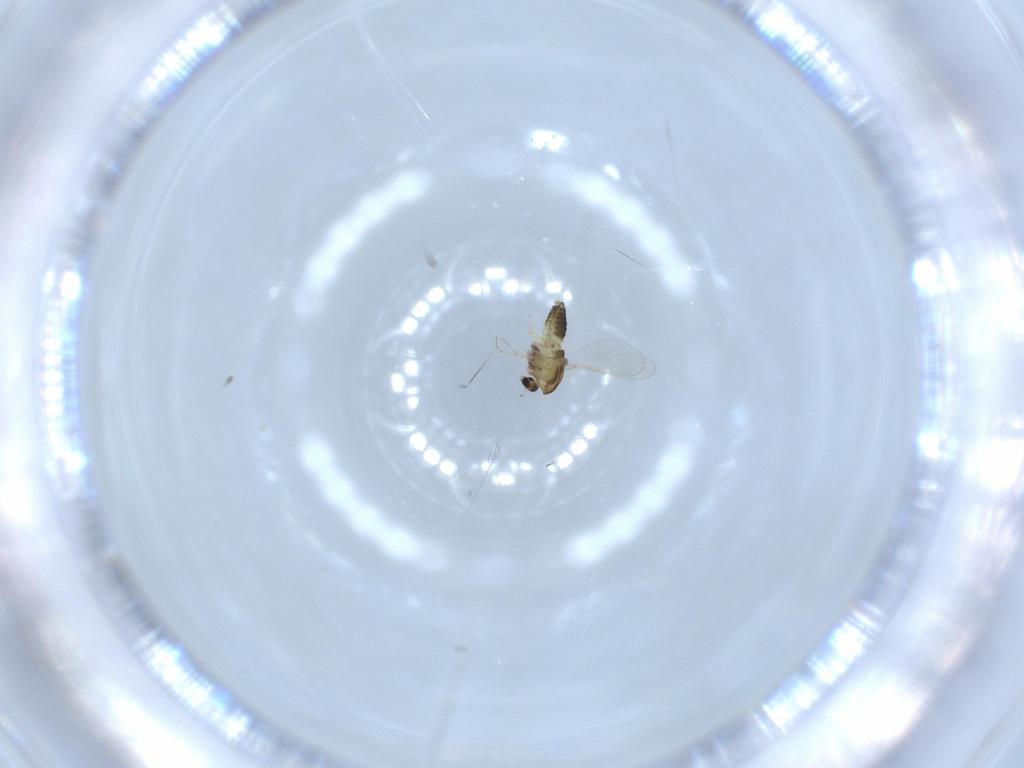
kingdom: Animalia
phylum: Arthropoda
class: Insecta
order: Diptera
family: Chironomidae
